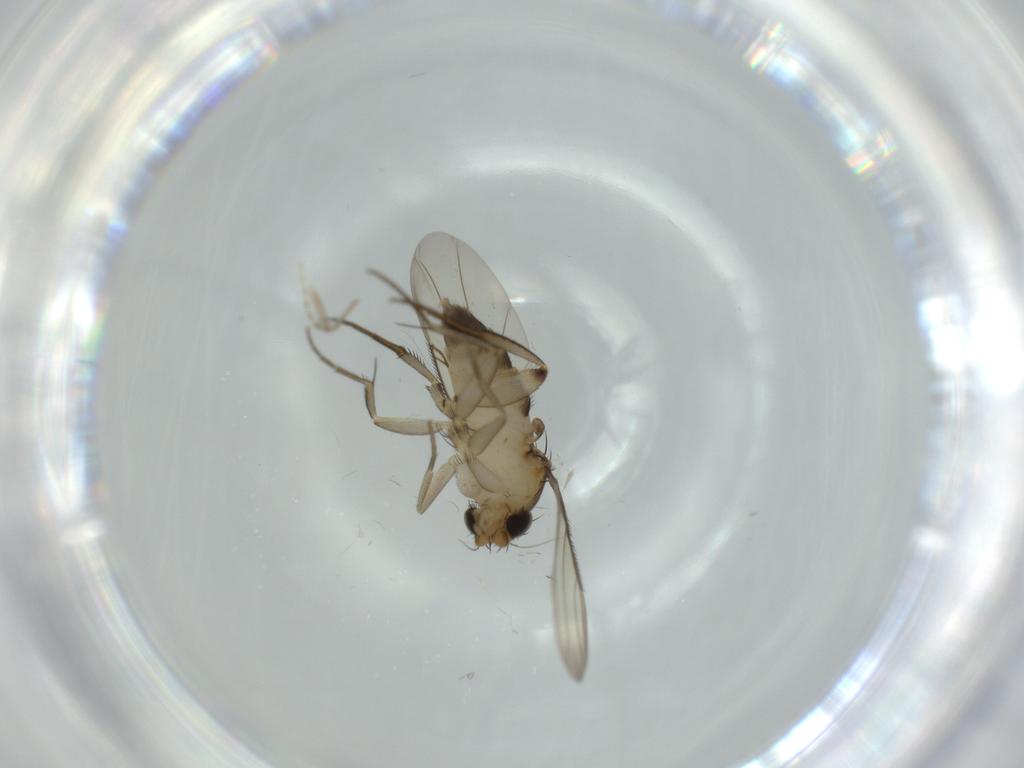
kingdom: Animalia
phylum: Arthropoda
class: Insecta
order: Diptera
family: Phoridae
